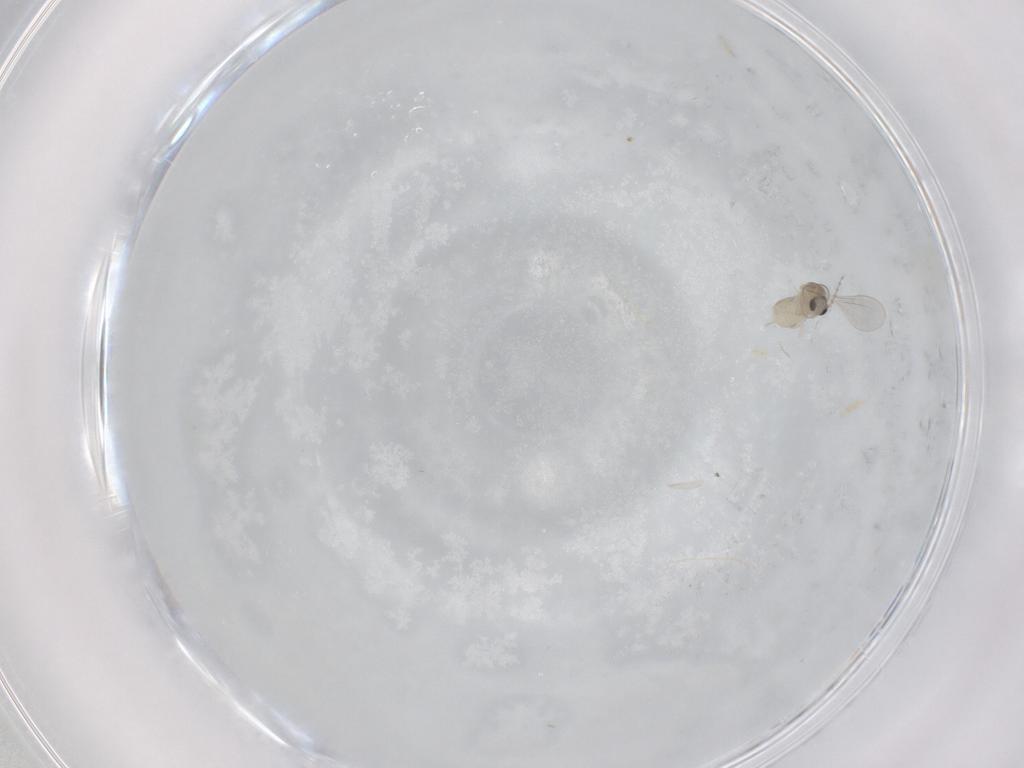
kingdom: Animalia
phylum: Arthropoda
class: Insecta
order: Diptera
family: Cecidomyiidae
